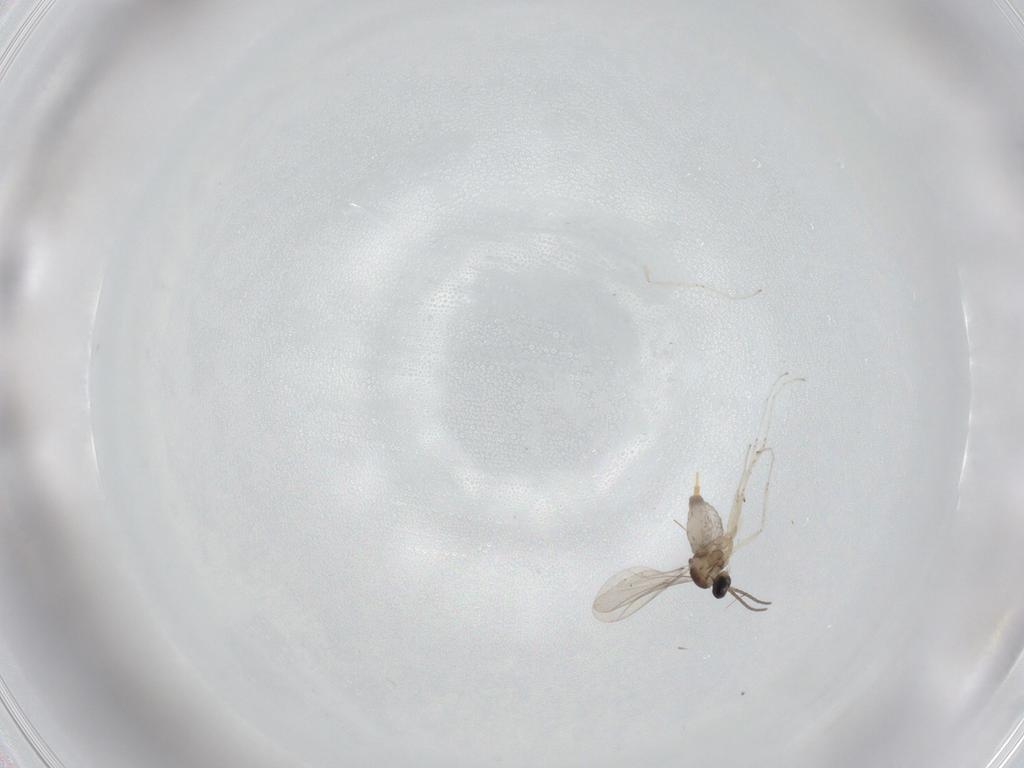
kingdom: Animalia
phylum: Arthropoda
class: Insecta
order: Diptera
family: Cecidomyiidae
